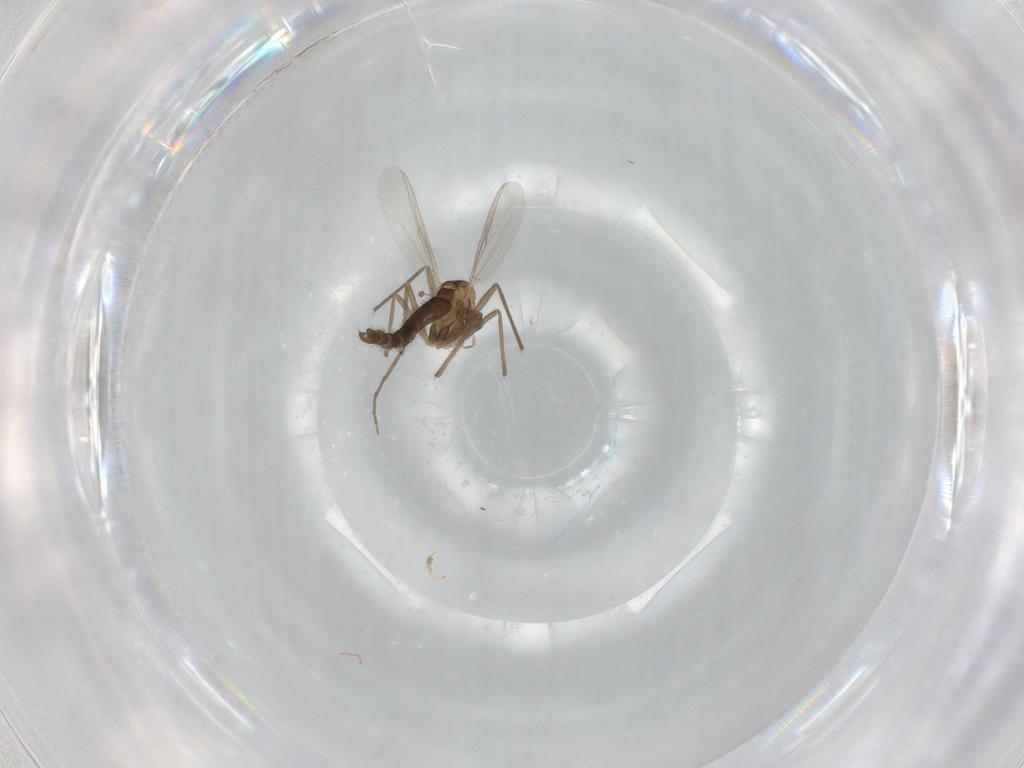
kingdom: Animalia
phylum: Arthropoda
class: Insecta
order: Diptera
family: Chironomidae
